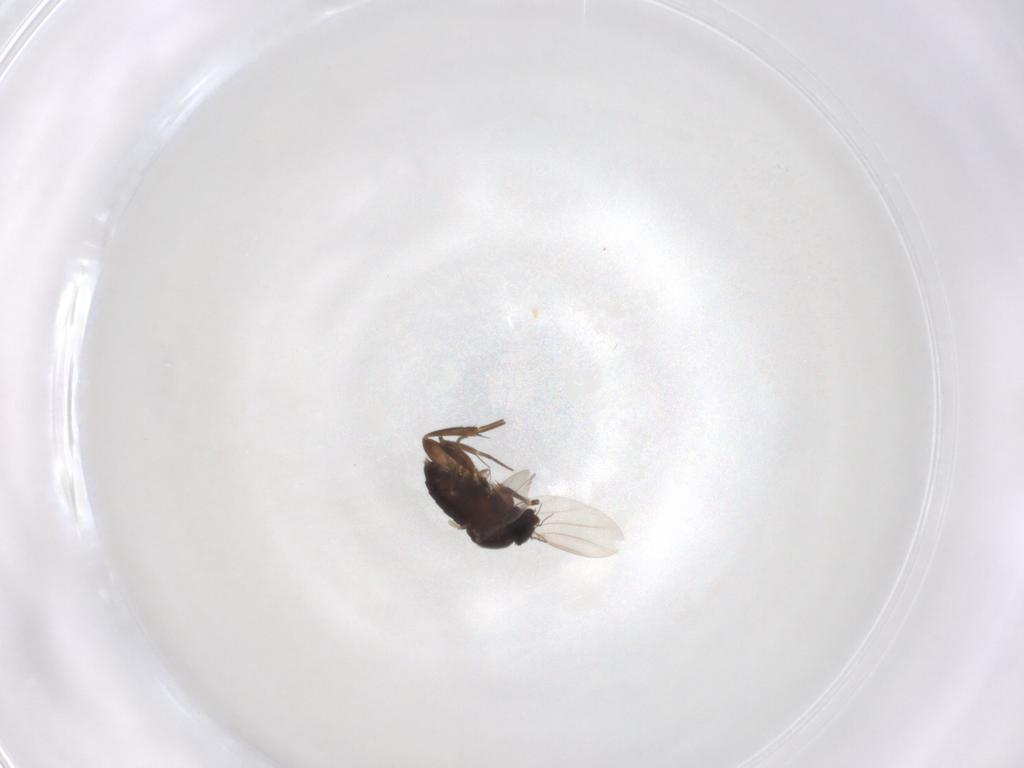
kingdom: Animalia
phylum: Arthropoda
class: Insecta
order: Diptera
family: Phoridae
